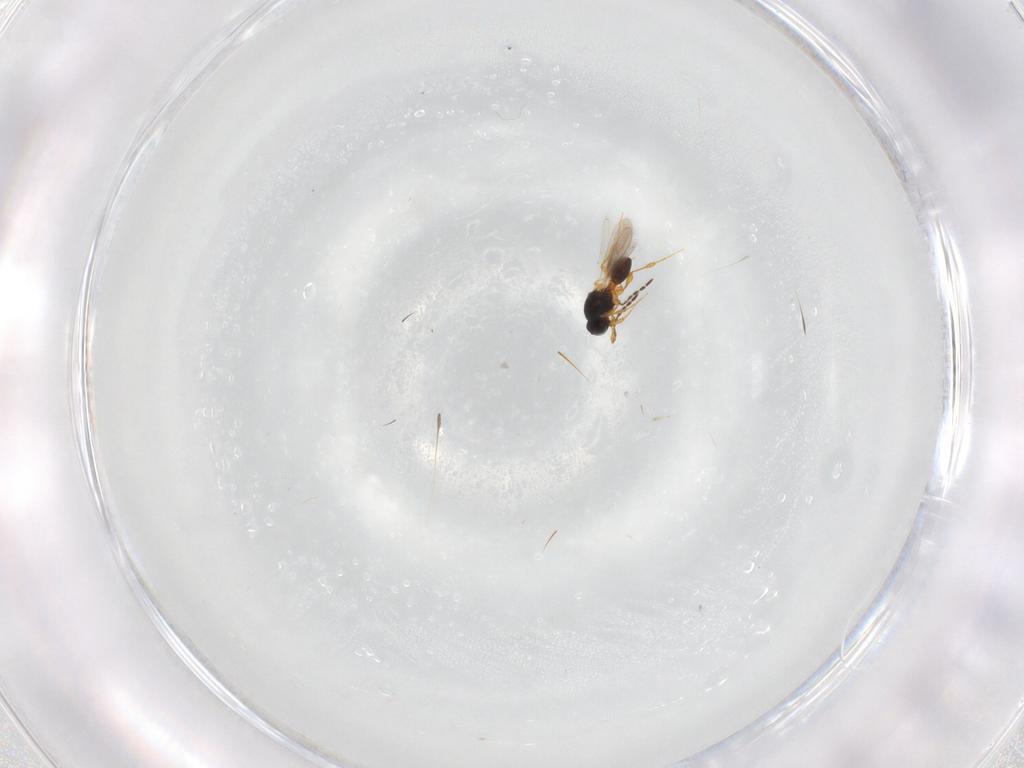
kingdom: Animalia
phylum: Arthropoda
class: Insecta
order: Hymenoptera
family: Platygastridae
